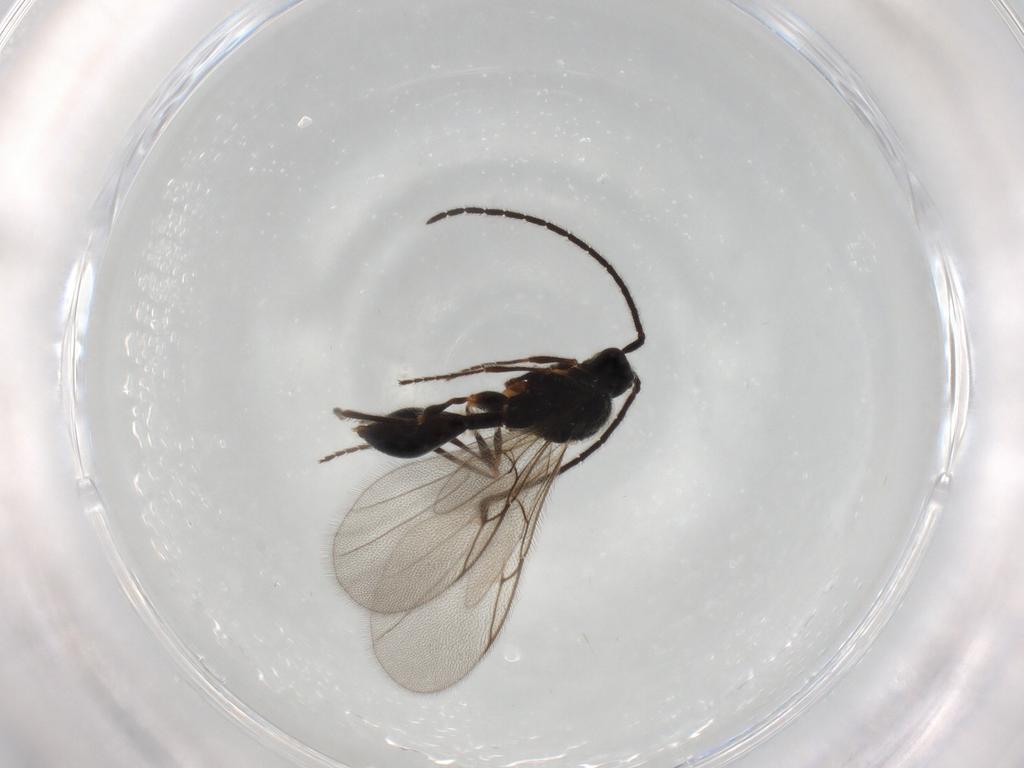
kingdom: Animalia
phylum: Arthropoda
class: Insecta
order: Hymenoptera
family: Diapriidae
